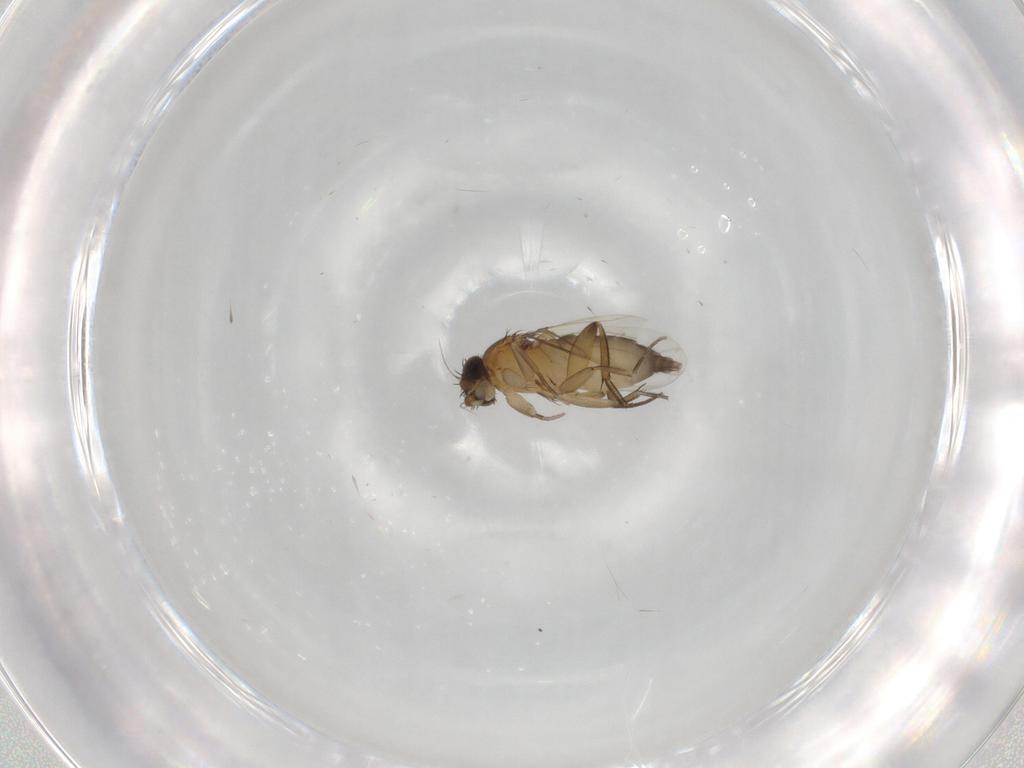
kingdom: Animalia
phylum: Arthropoda
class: Insecta
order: Diptera
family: Phoridae
